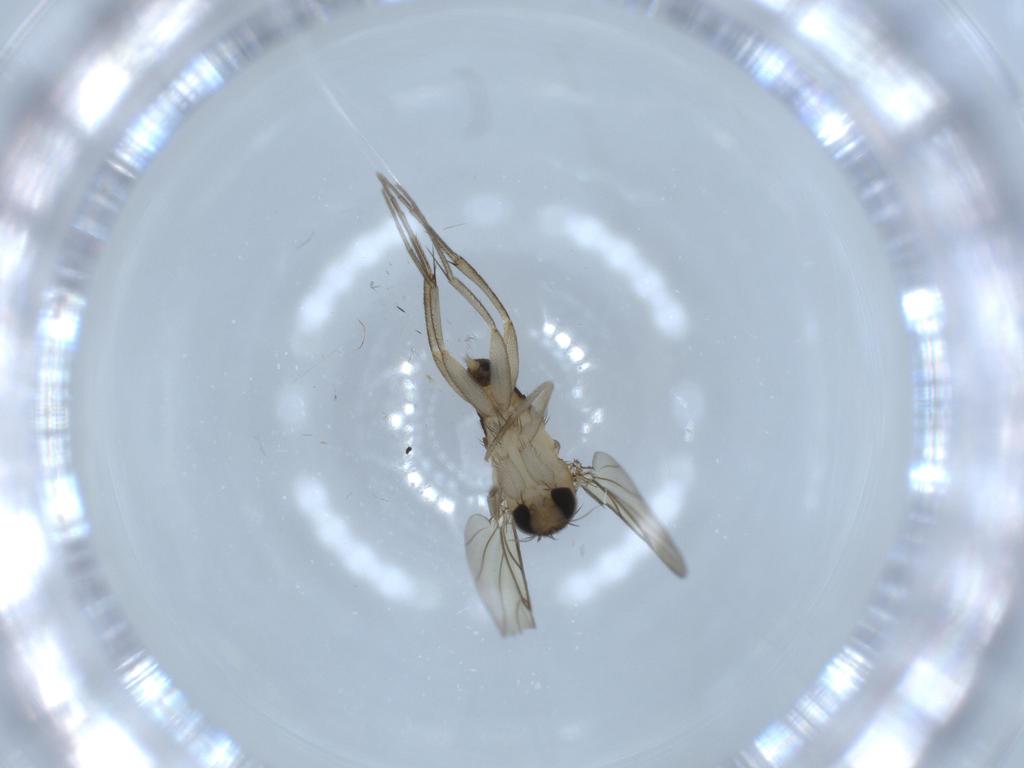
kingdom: Animalia
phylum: Arthropoda
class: Insecta
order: Diptera
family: Phoridae
